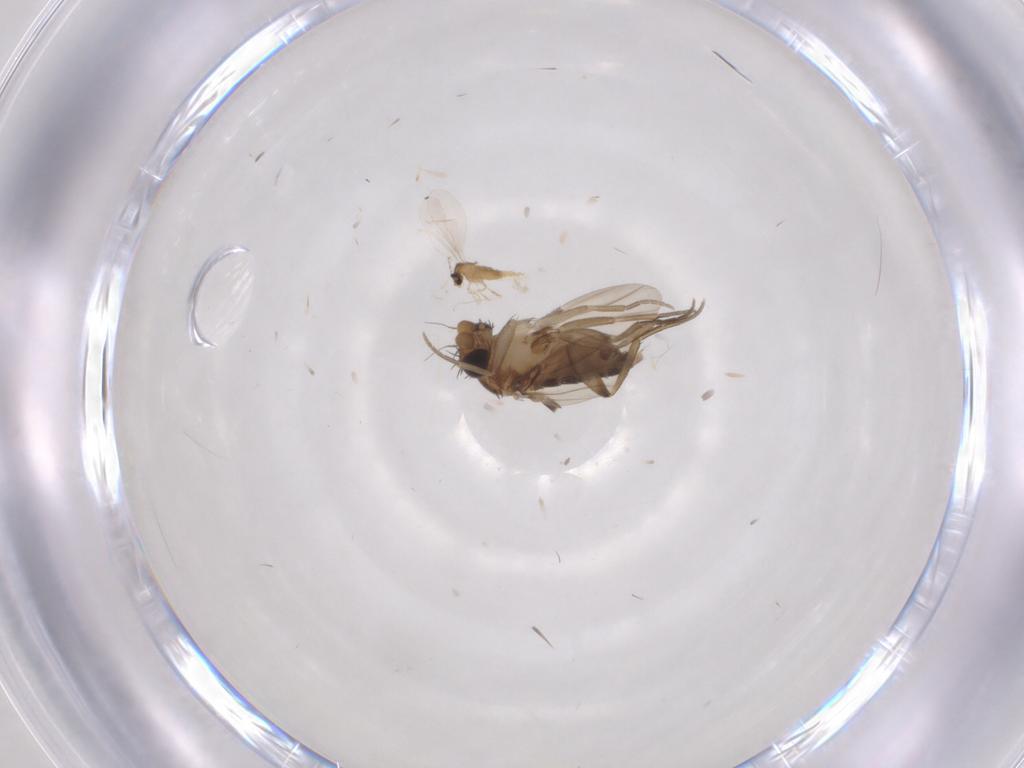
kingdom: Animalia
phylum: Arthropoda
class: Insecta
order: Diptera
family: Cecidomyiidae
